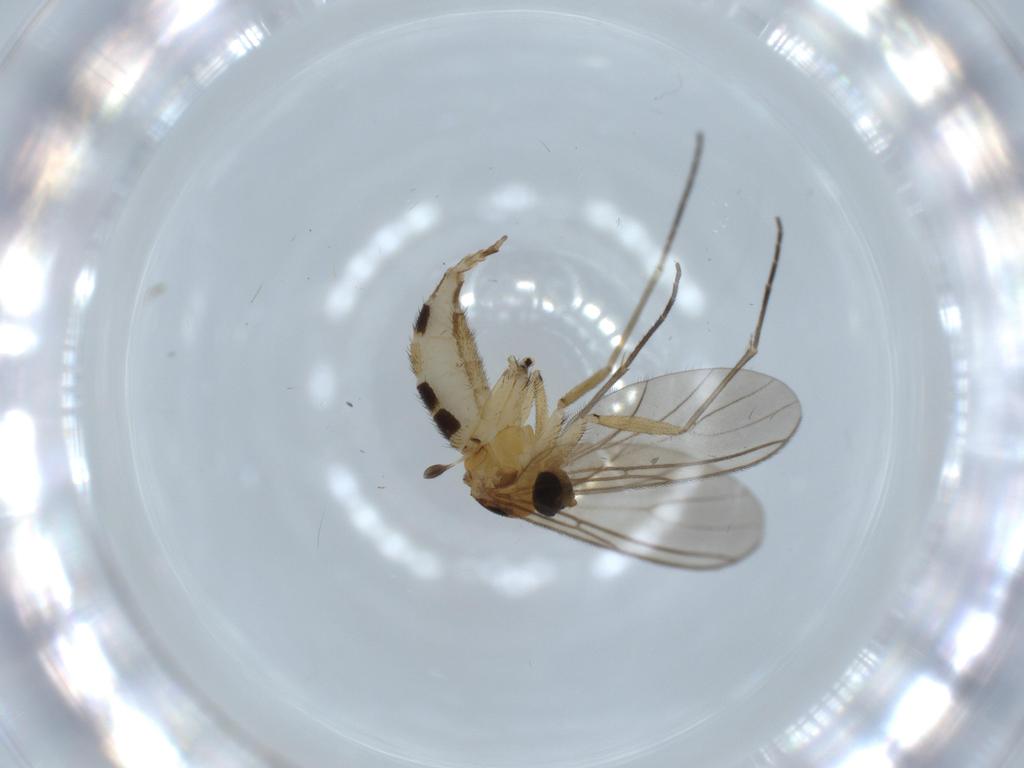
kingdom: Animalia
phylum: Arthropoda
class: Insecta
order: Diptera
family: Sciaridae
